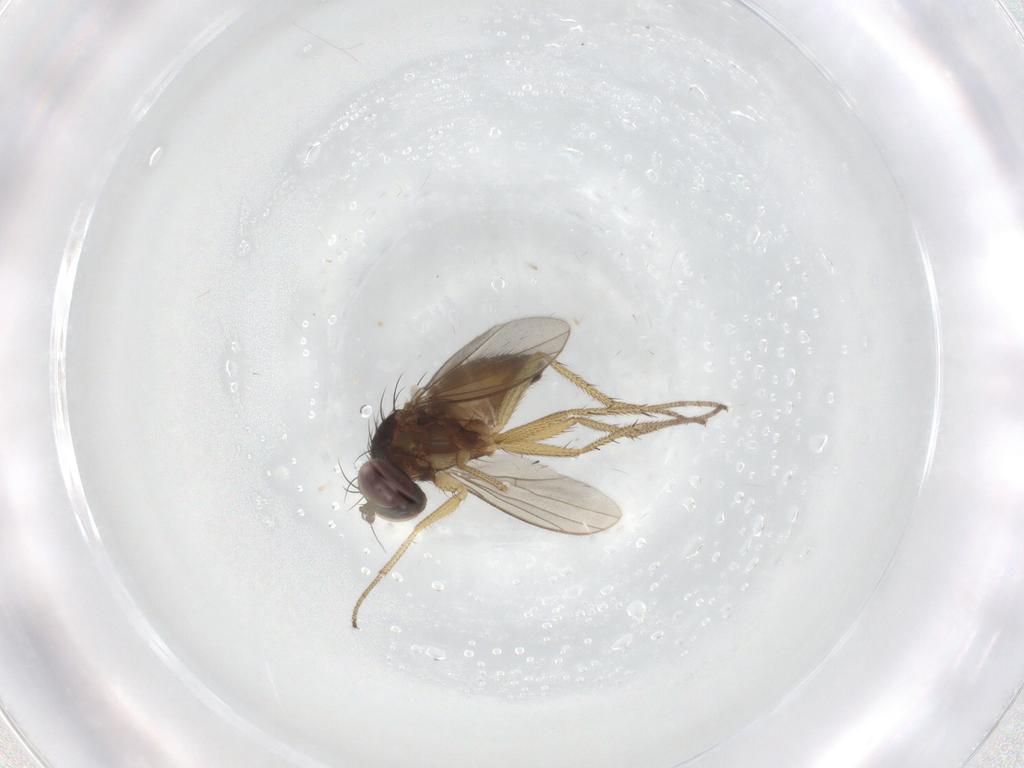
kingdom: Animalia
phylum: Arthropoda
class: Insecta
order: Diptera
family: Dolichopodidae
